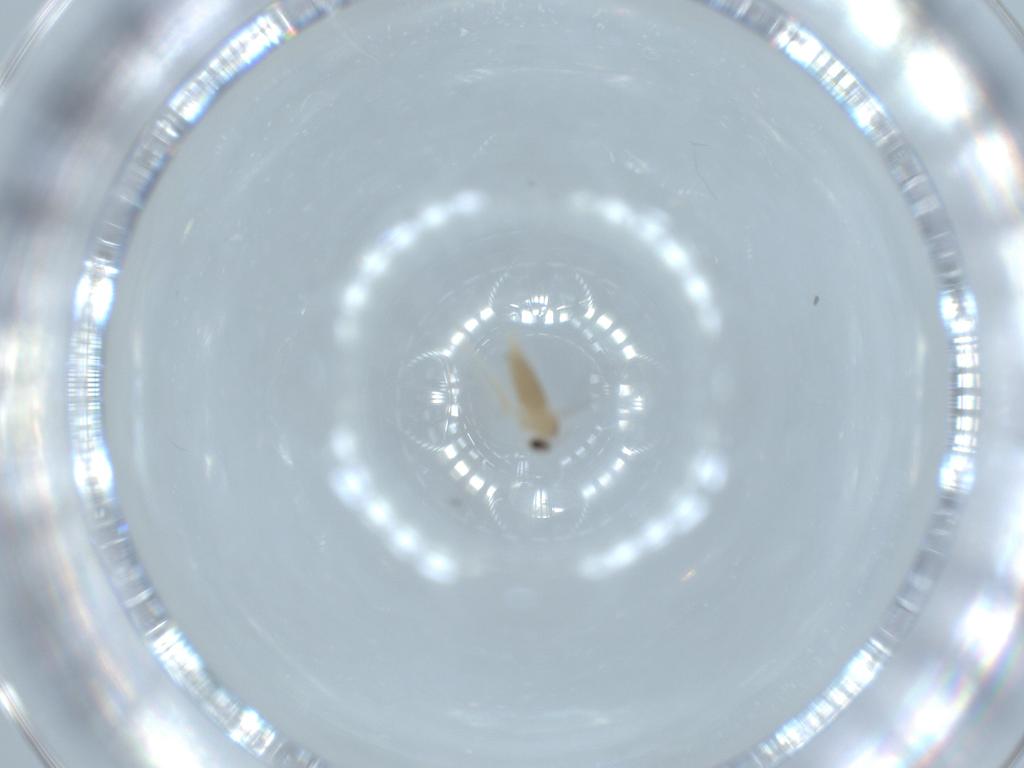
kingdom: Animalia
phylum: Arthropoda
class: Insecta
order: Diptera
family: Cecidomyiidae
